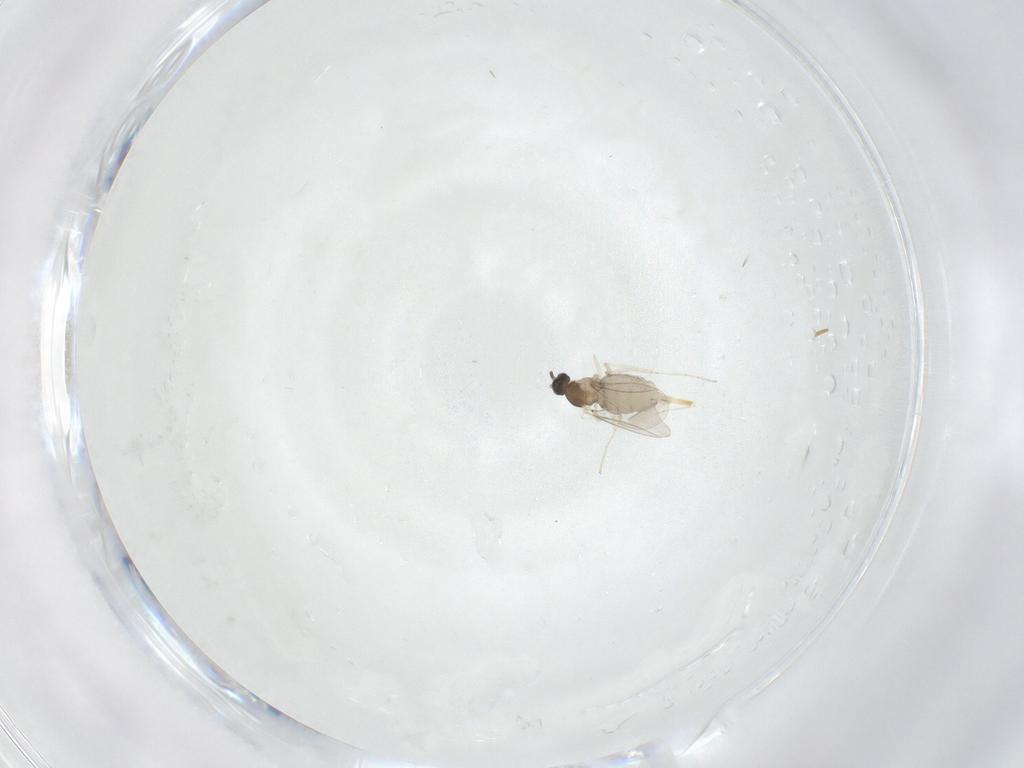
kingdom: Animalia
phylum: Arthropoda
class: Insecta
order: Diptera
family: Cecidomyiidae
